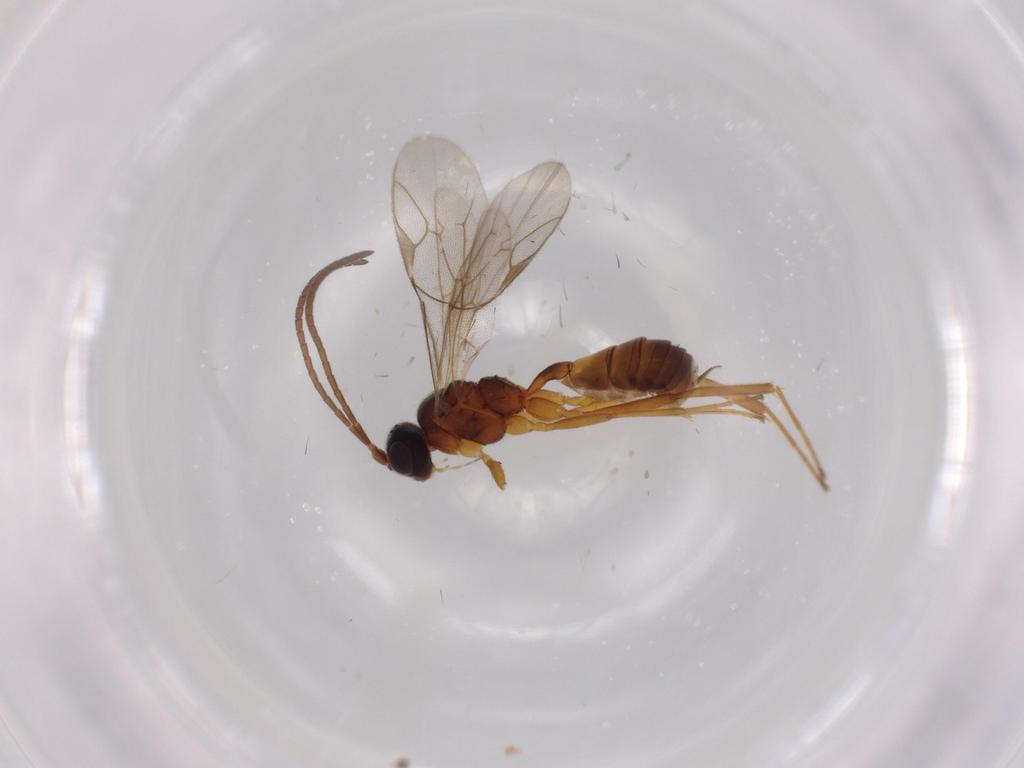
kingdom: Animalia
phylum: Arthropoda
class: Insecta
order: Hymenoptera
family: Ichneumonidae
